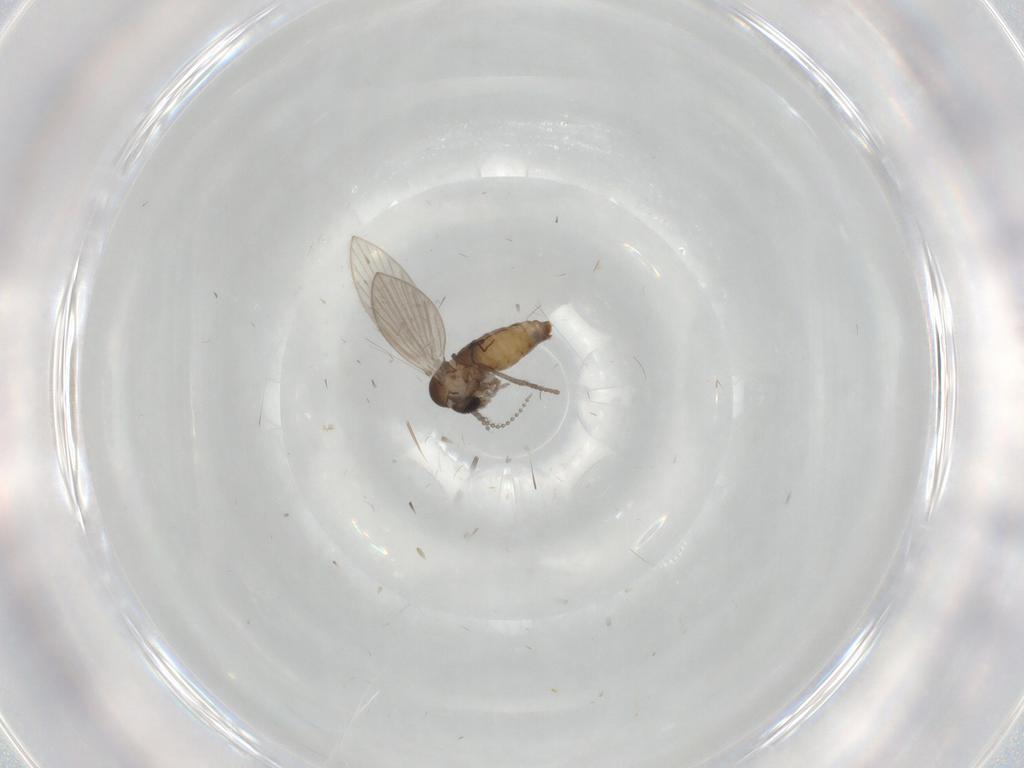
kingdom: Animalia
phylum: Arthropoda
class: Insecta
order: Diptera
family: Psychodidae
